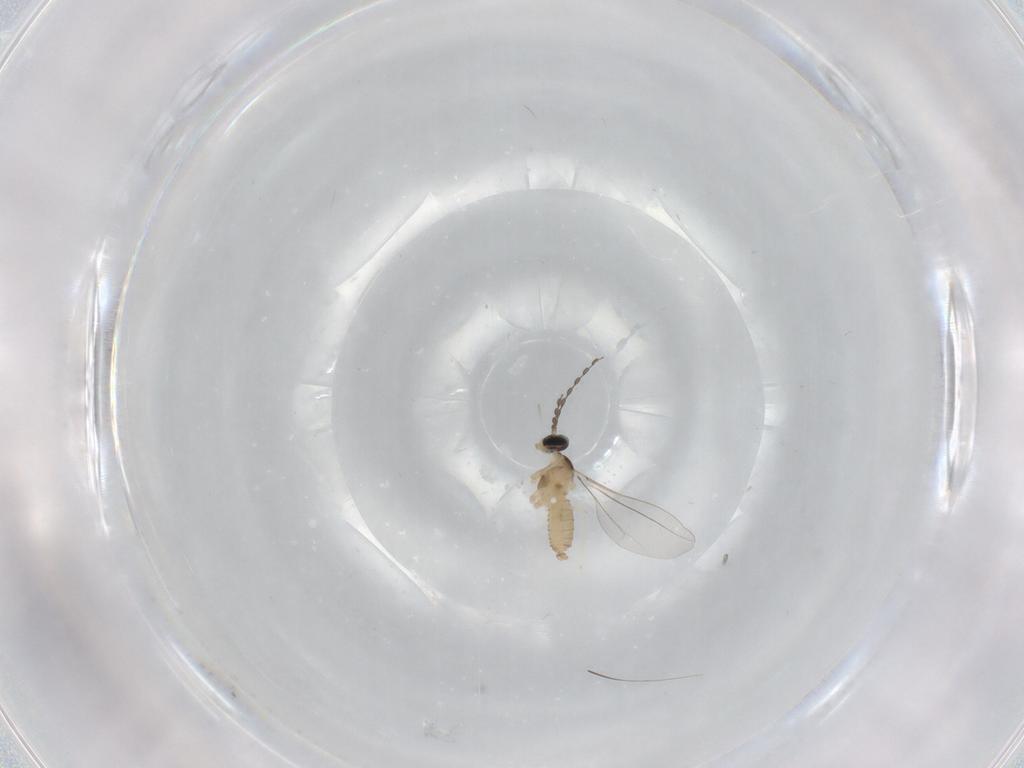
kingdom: Animalia
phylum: Arthropoda
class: Insecta
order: Diptera
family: Cecidomyiidae
